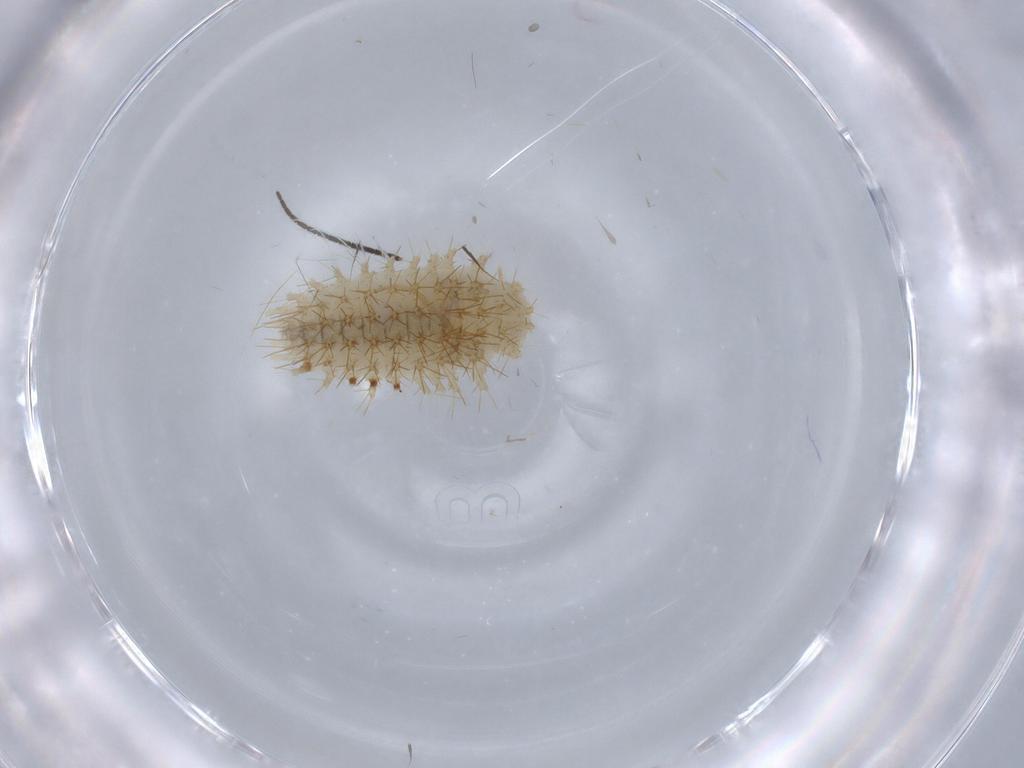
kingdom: Animalia
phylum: Arthropoda
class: Insecta
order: Coleoptera
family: Coccinellidae
